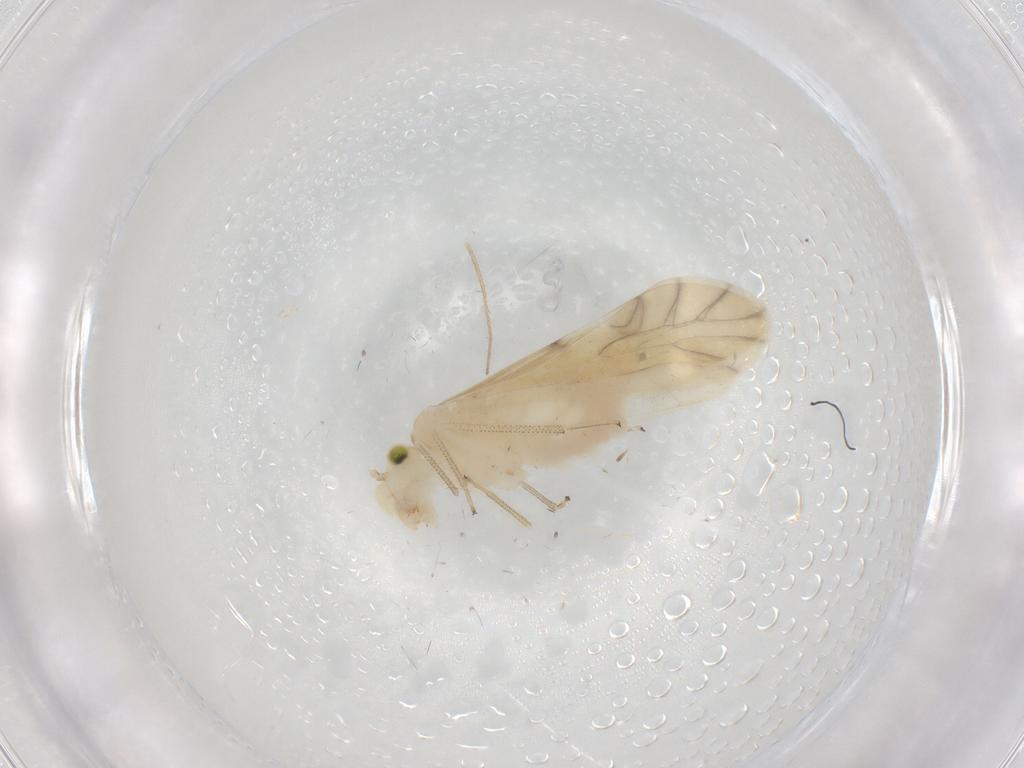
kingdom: Animalia
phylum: Arthropoda
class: Insecta
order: Psocodea
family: Caeciliusidae
